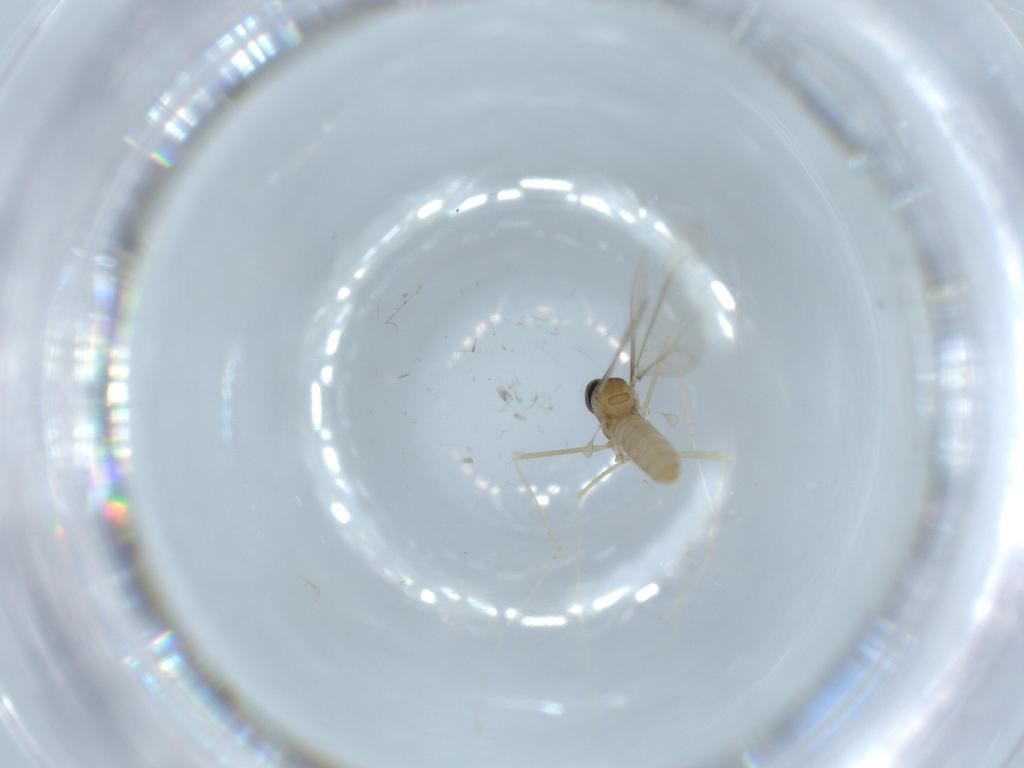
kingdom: Animalia
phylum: Arthropoda
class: Insecta
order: Diptera
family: Cecidomyiidae
